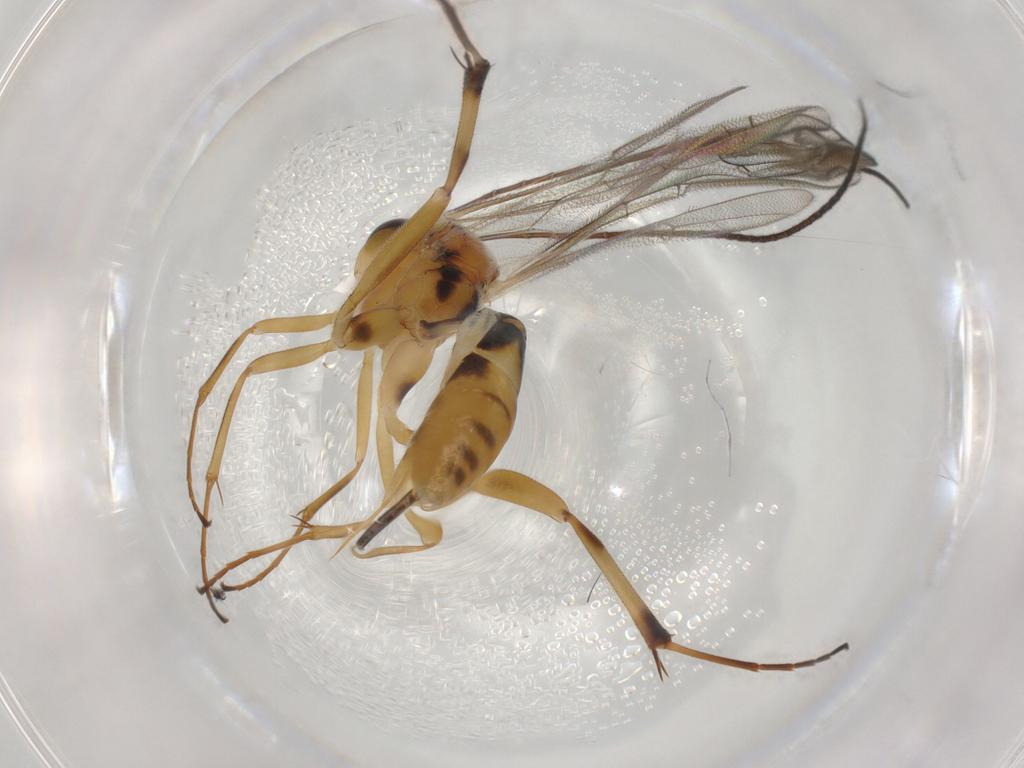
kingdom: Animalia
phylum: Arthropoda
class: Insecta
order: Hymenoptera
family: Ichneumonidae
